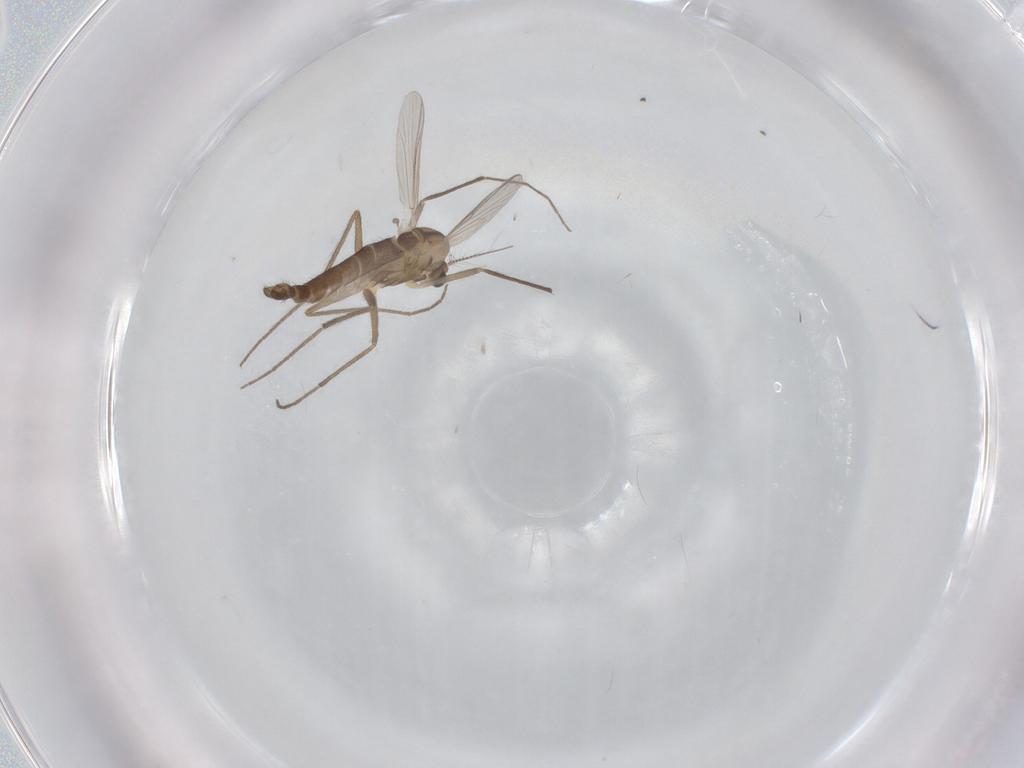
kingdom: Animalia
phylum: Arthropoda
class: Insecta
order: Diptera
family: Chironomidae
